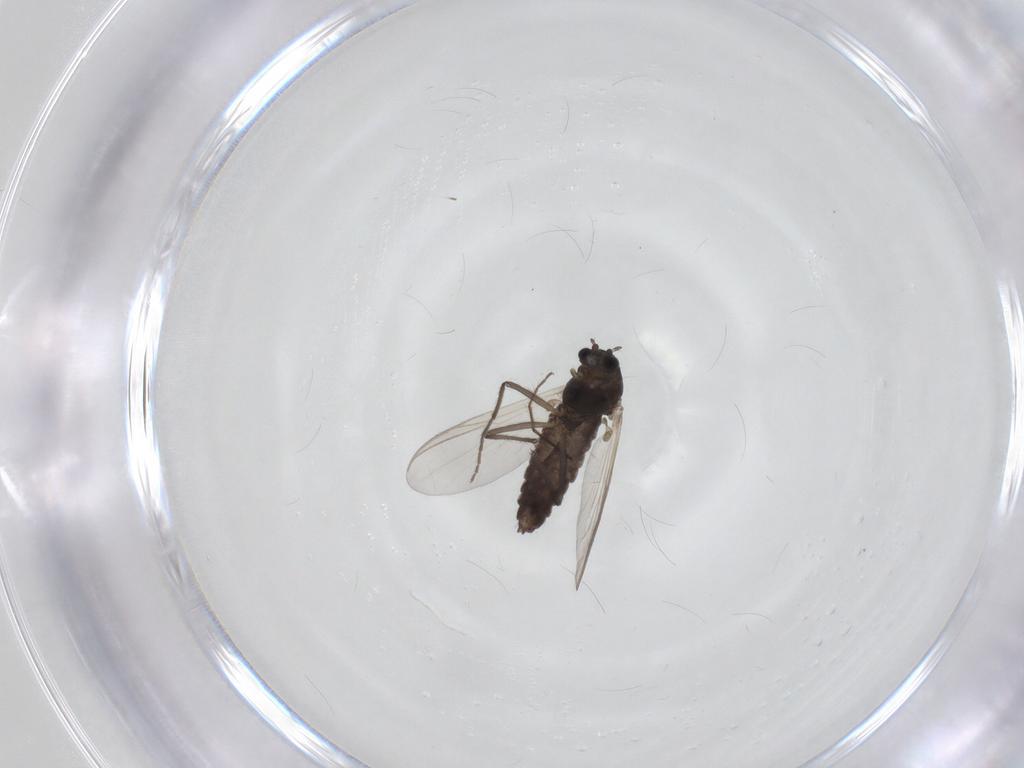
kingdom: Animalia
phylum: Arthropoda
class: Insecta
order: Diptera
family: Chironomidae
